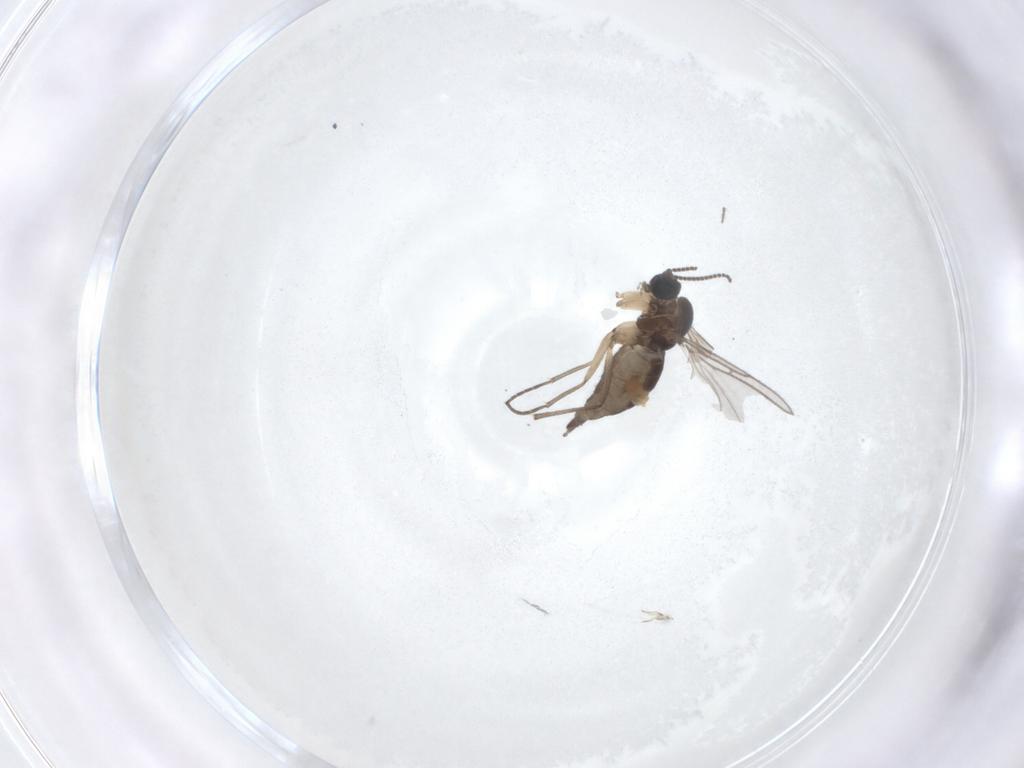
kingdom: Animalia
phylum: Arthropoda
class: Insecta
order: Diptera
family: Sciaridae
